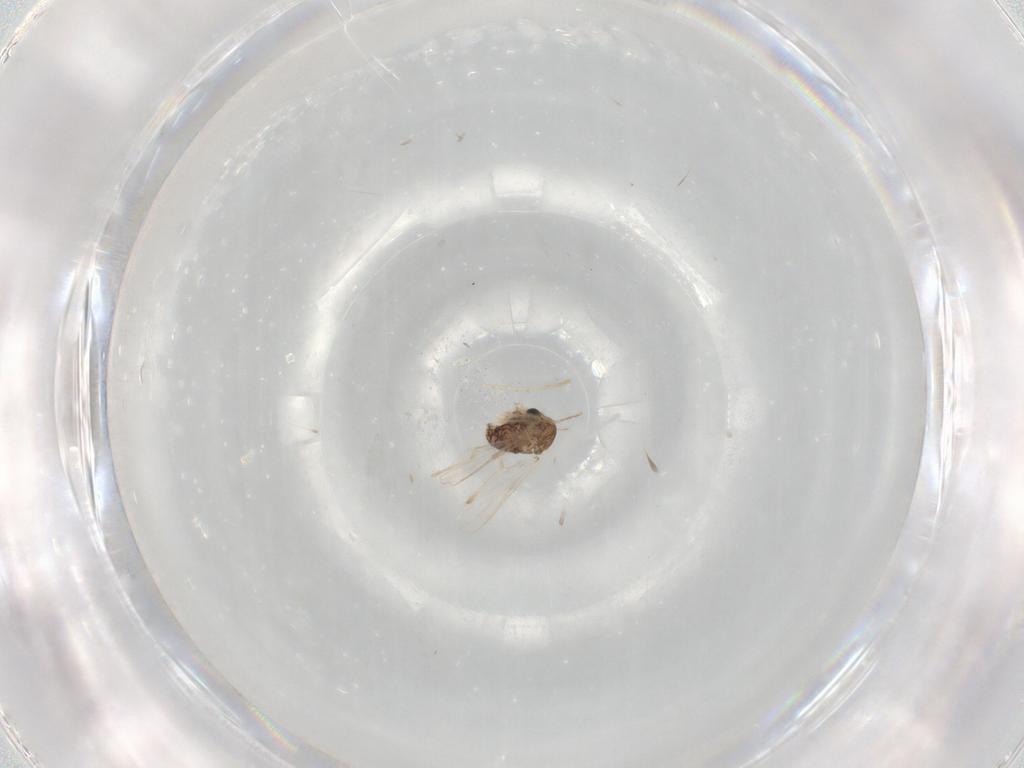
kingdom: Animalia
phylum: Arthropoda
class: Insecta
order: Diptera
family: Chironomidae
